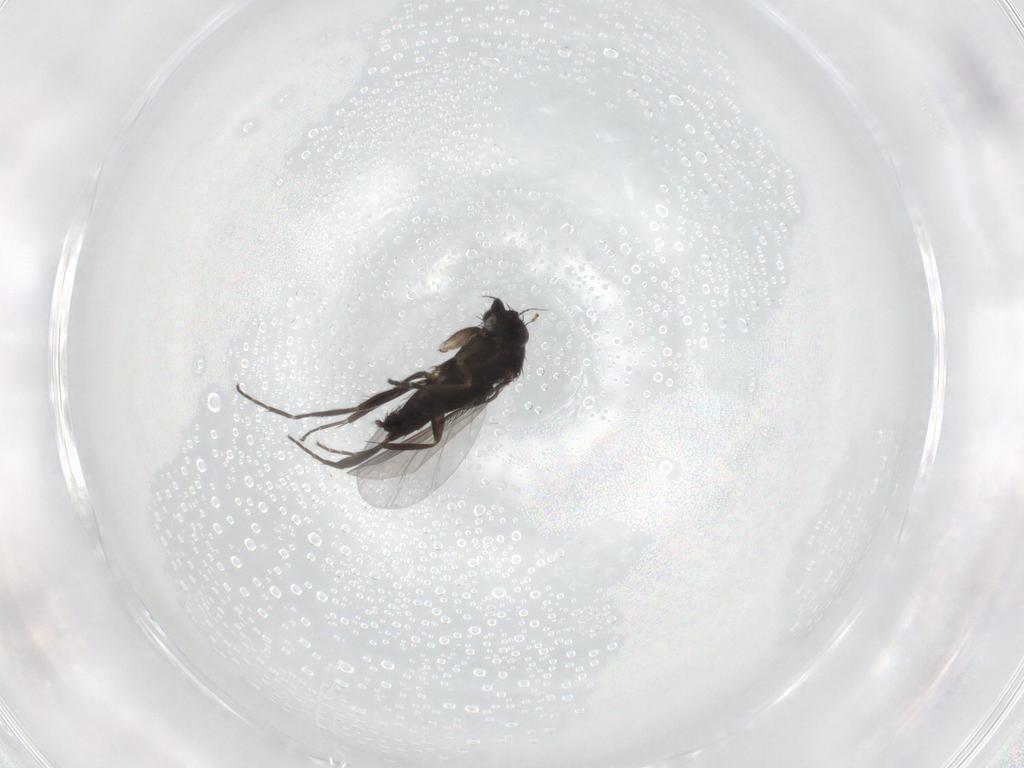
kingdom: Animalia
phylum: Arthropoda
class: Insecta
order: Diptera
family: Phoridae
